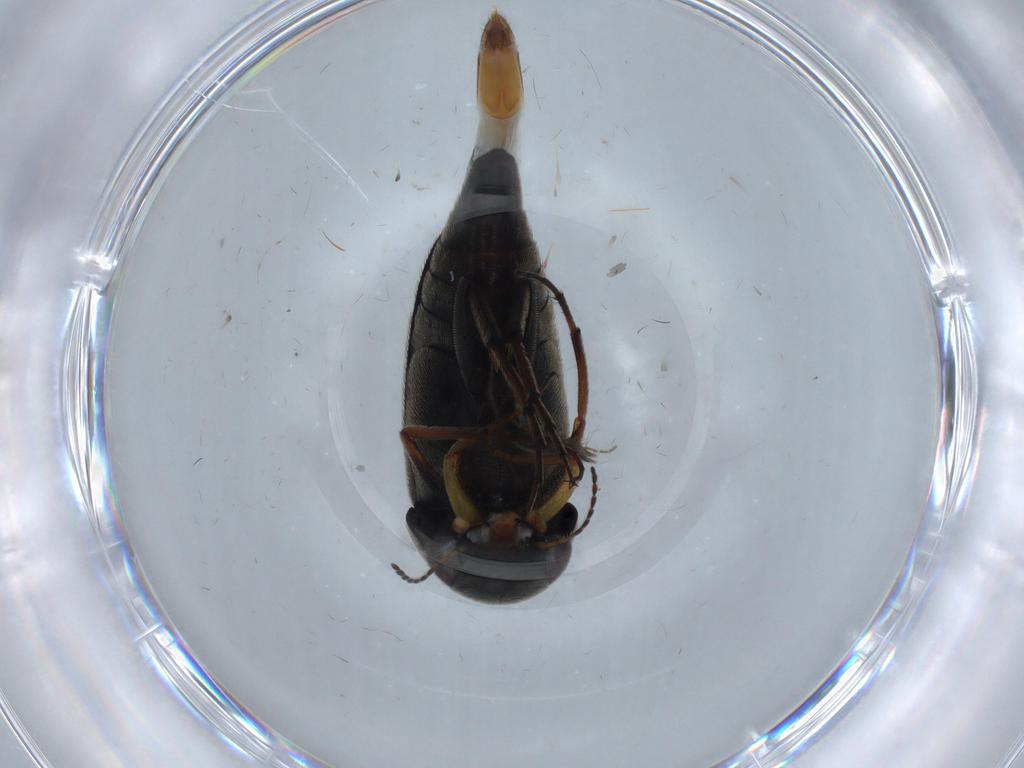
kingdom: Animalia
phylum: Arthropoda
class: Insecta
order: Coleoptera
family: Mordellidae
